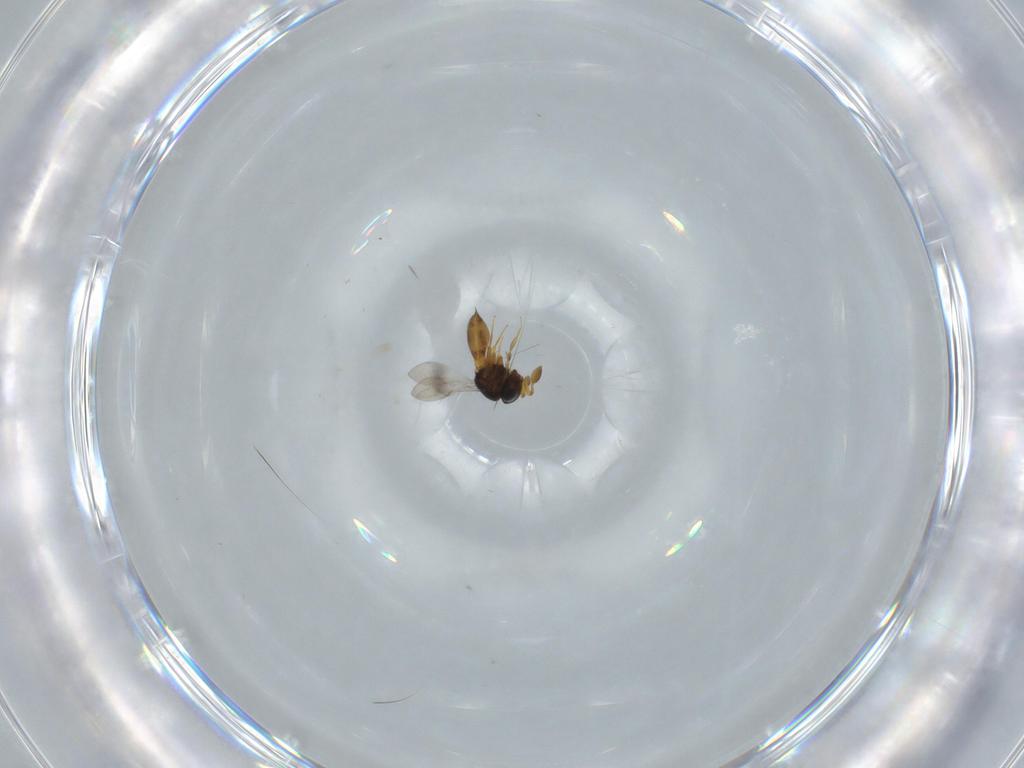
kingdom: Animalia
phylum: Arthropoda
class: Insecta
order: Hymenoptera
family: Scelionidae
